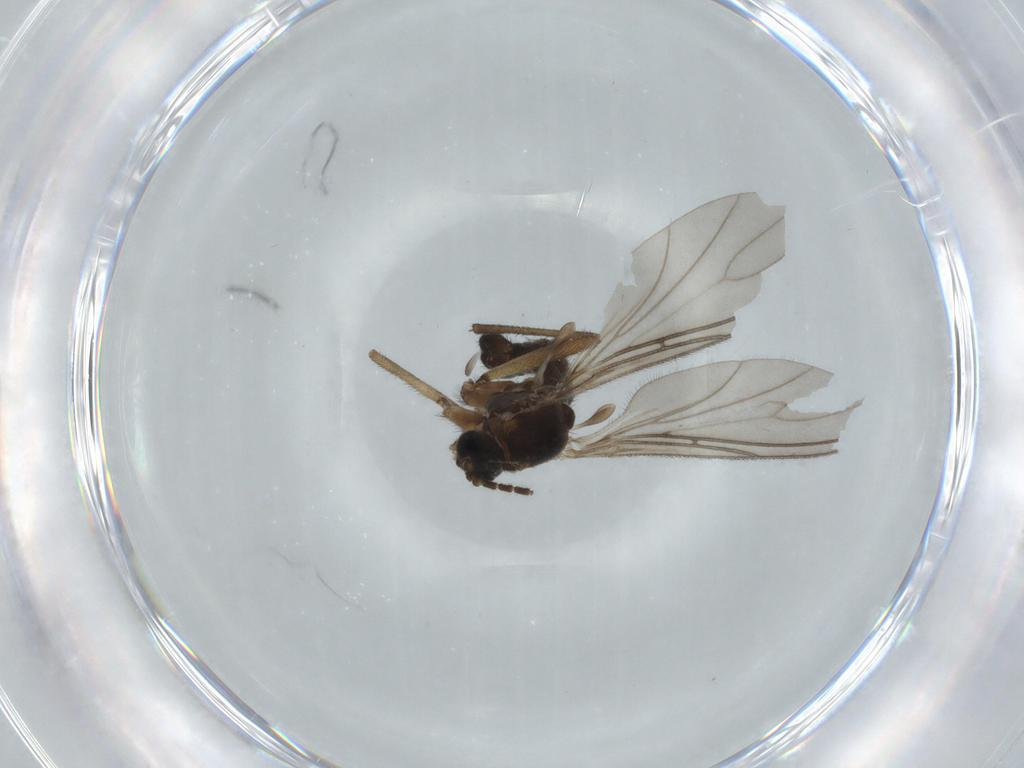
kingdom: Animalia
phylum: Arthropoda
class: Insecta
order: Diptera
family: Sciaridae
